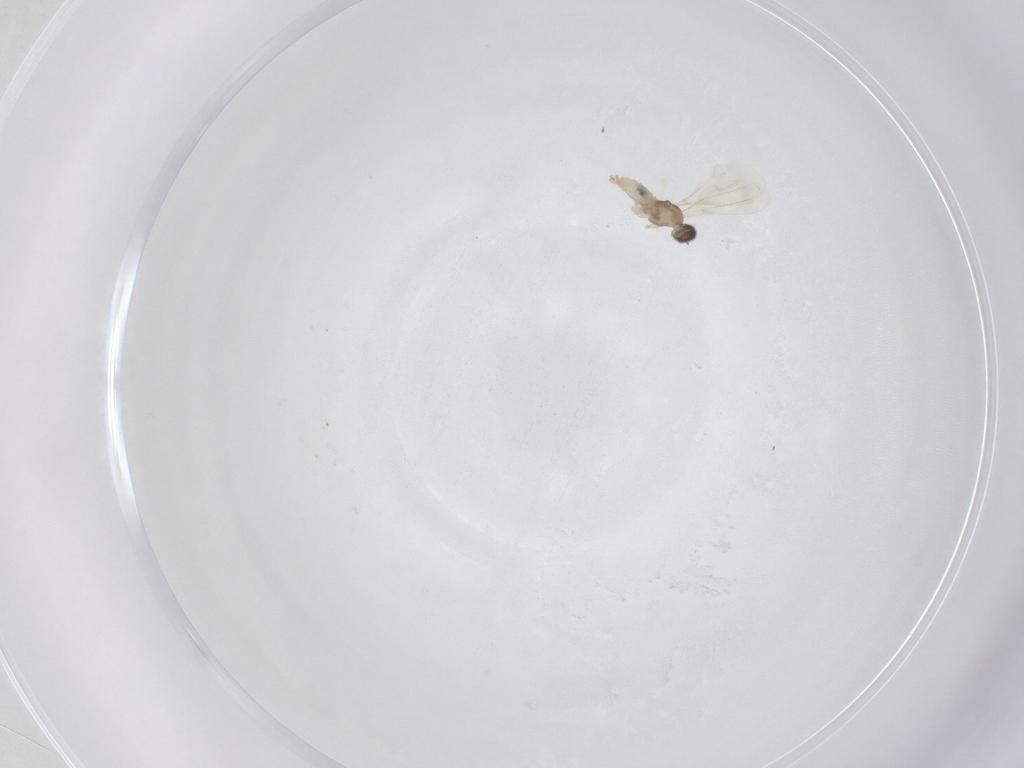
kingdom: Animalia
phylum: Arthropoda
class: Insecta
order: Diptera
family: Cecidomyiidae
